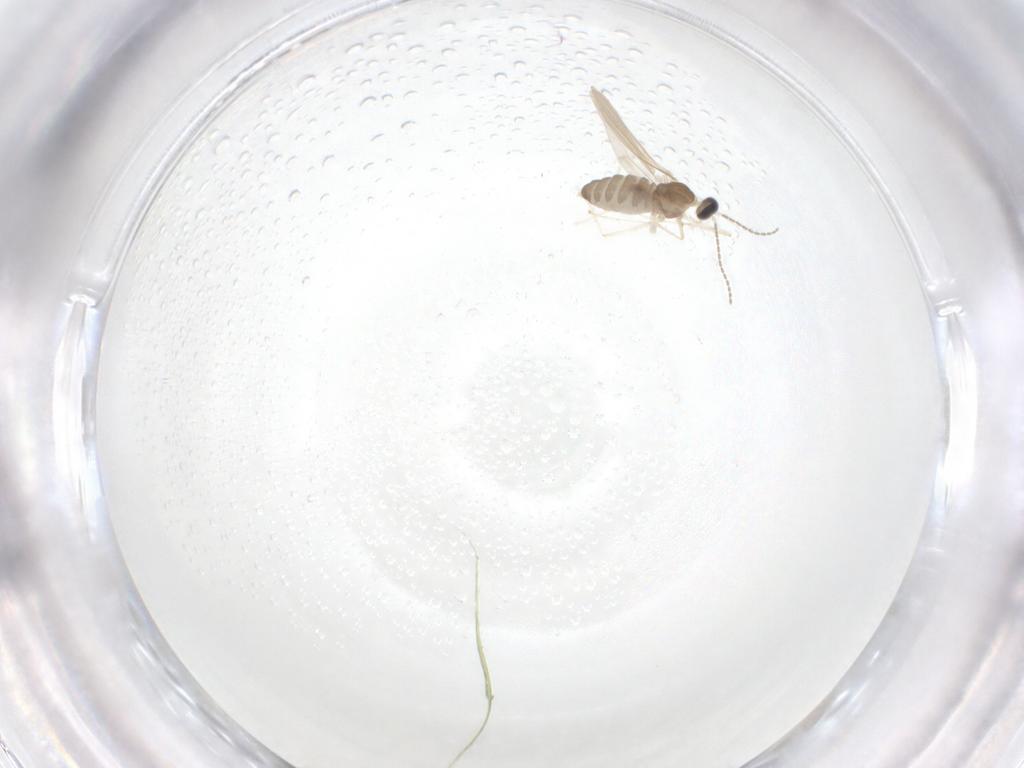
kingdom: Animalia
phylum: Arthropoda
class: Insecta
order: Diptera
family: Cecidomyiidae
